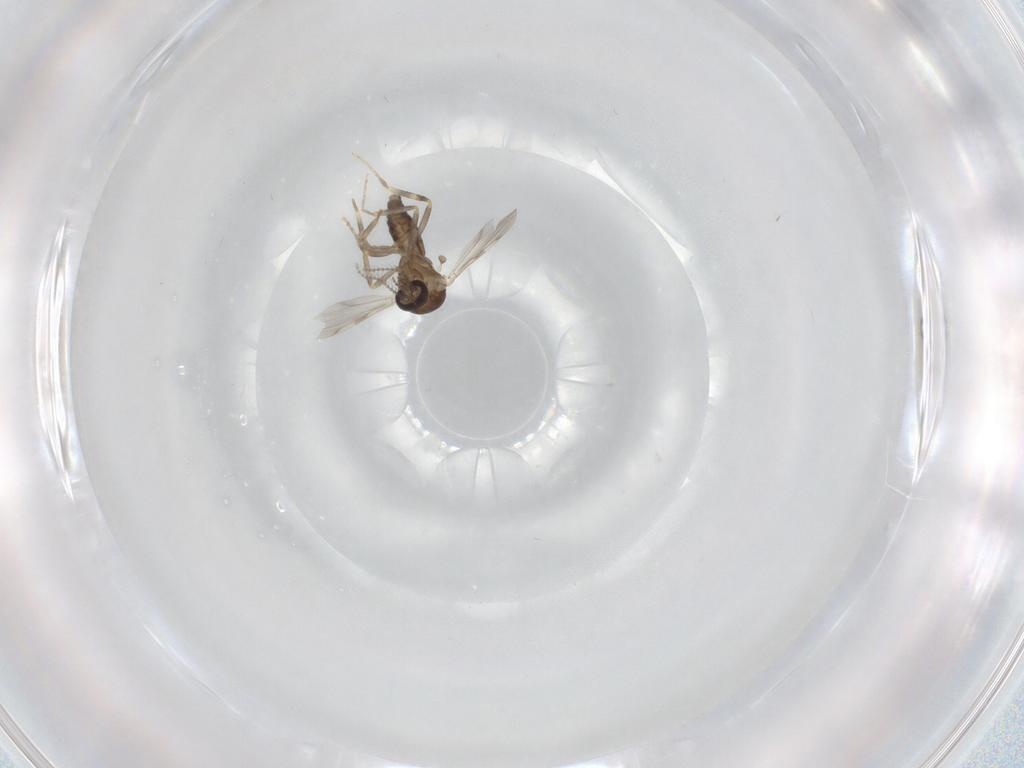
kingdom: Animalia
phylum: Arthropoda
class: Insecta
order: Diptera
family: Ceratopogonidae
